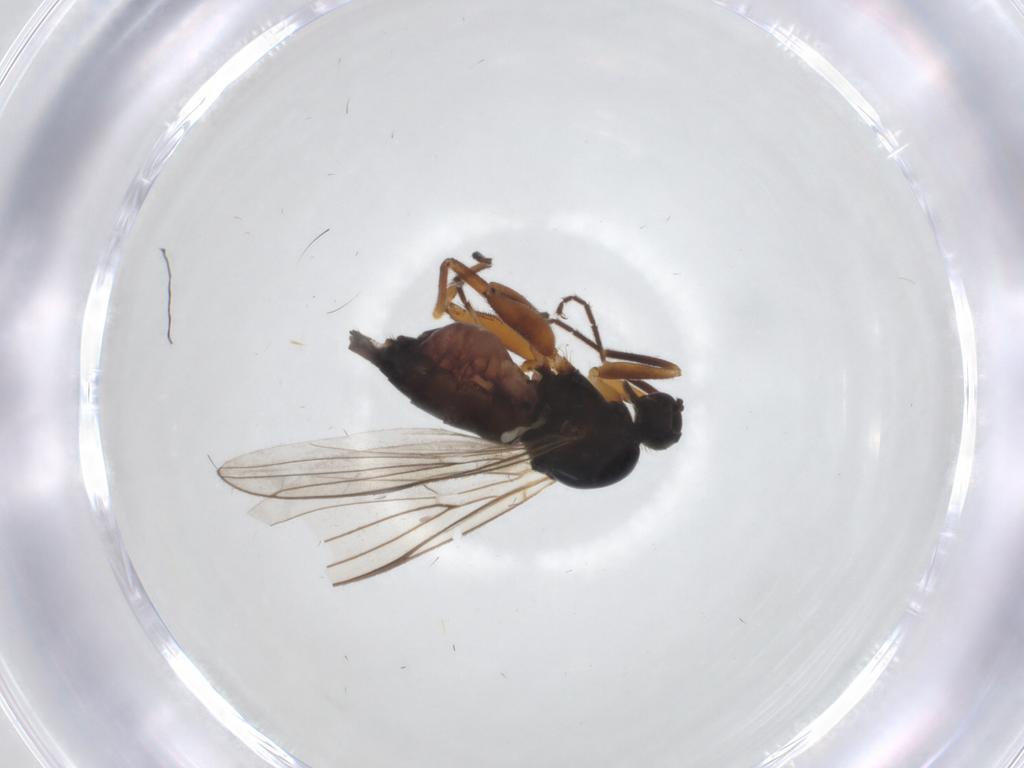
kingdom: Animalia
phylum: Arthropoda
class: Insecta
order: Diptera
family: Hybotidae
